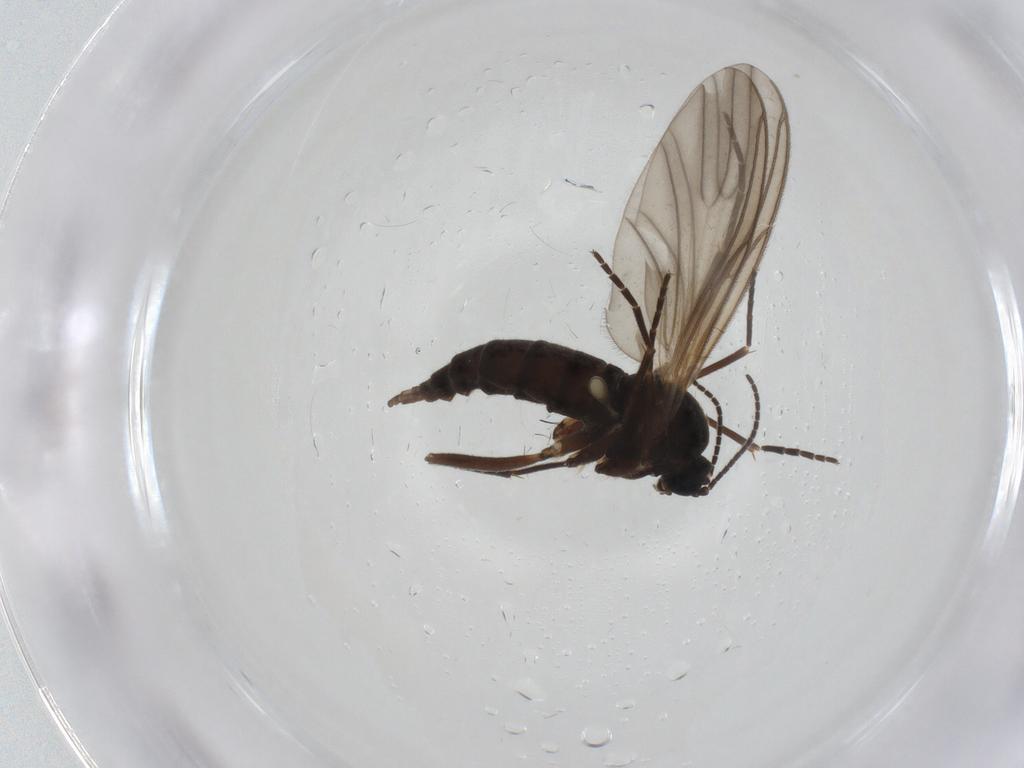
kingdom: Animalia
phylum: Arthropoda
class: Insecta
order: Diptera
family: Sciaridae
